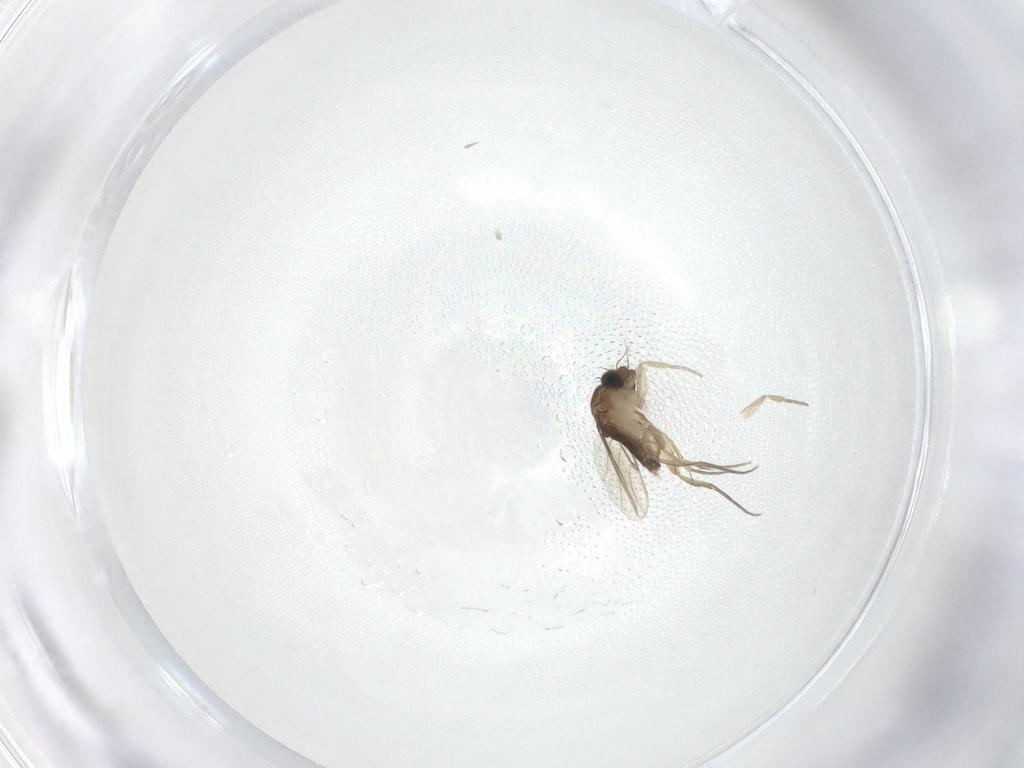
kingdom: Animalia
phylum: Arthropoda
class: Insecta
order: Diptera
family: Phoridae
